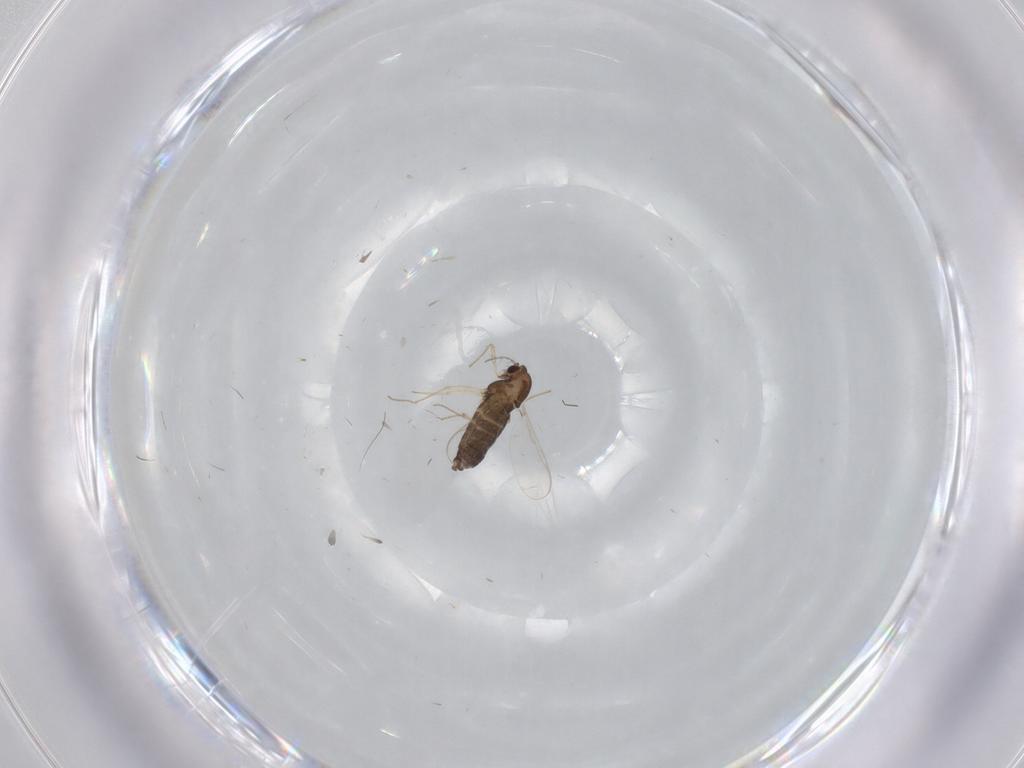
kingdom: Animalia
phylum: Arthropoda
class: Insecta
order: Diptera
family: Chironomidae
